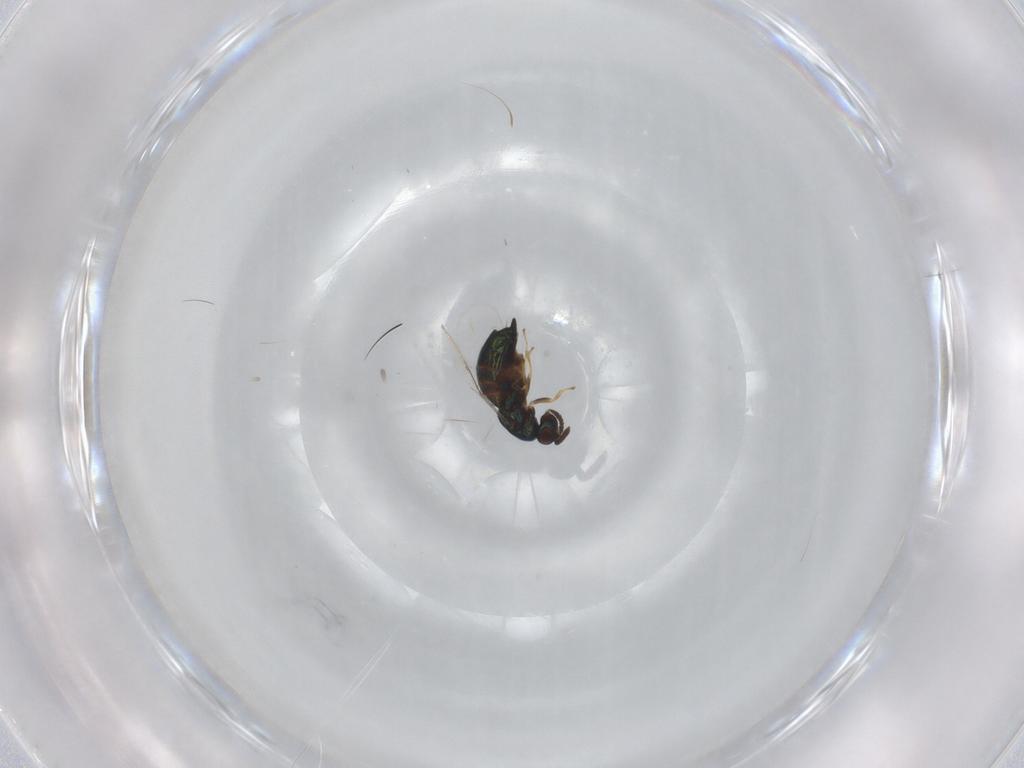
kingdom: Animalia
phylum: Arthropoda
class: Insecta
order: Hymenoptera
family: Pteromalidae
